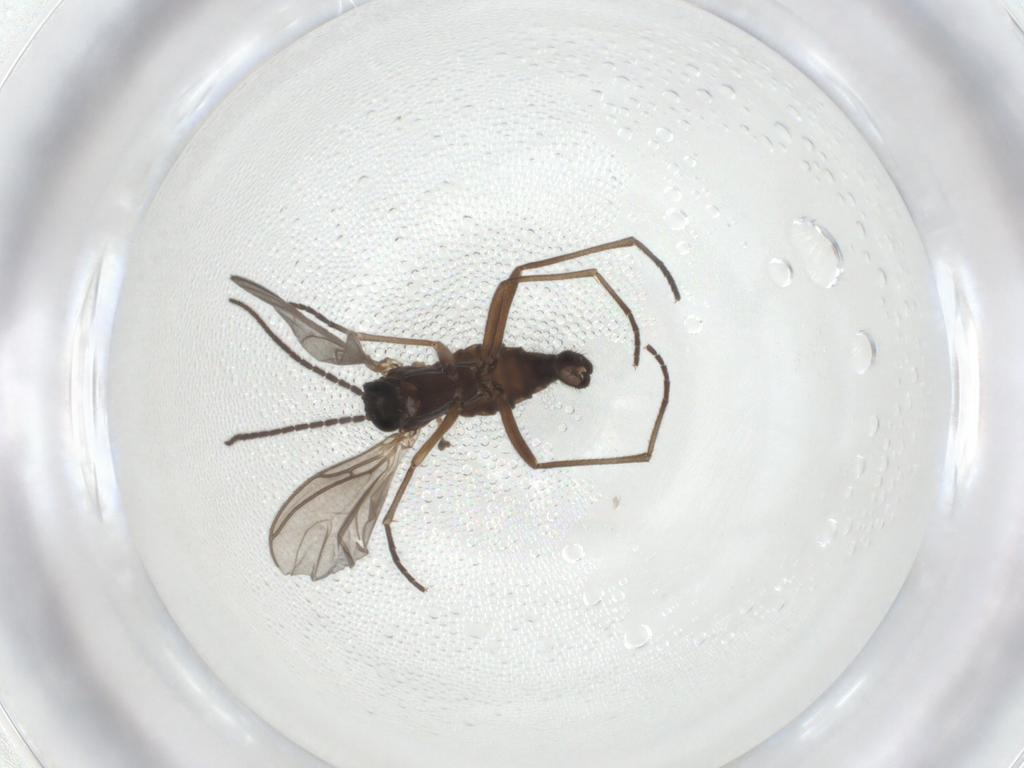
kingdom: Animalia
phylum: Arthropoda
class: Insecta
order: Diptera
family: Sciaridae
